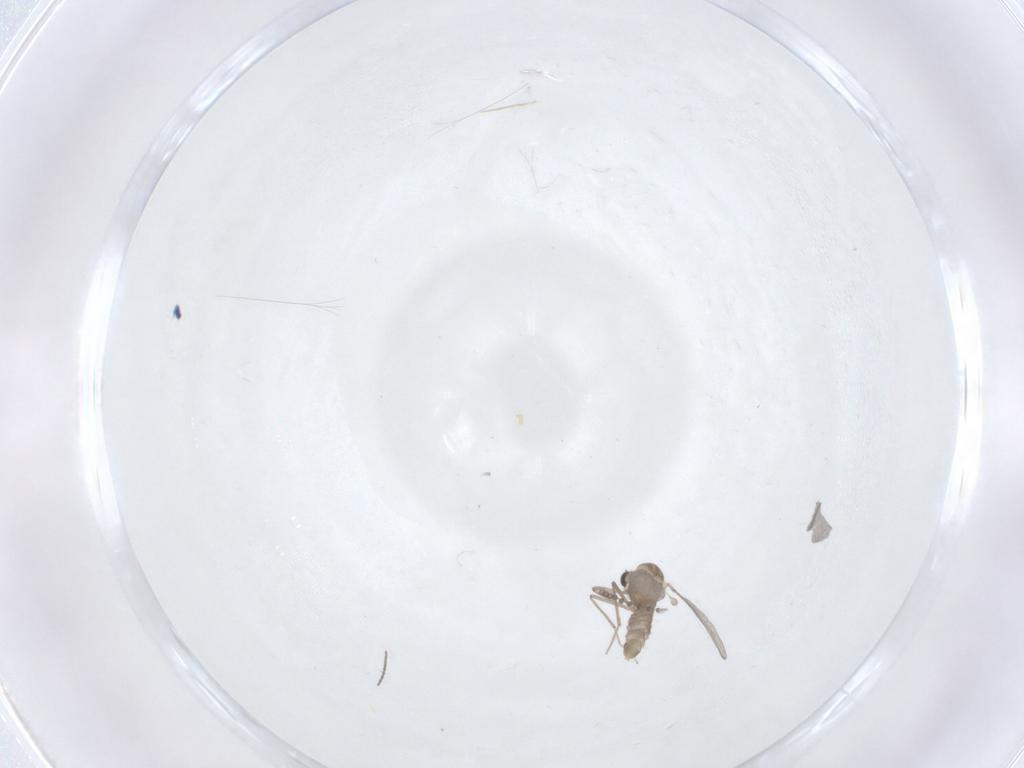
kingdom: Animalia
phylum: Arthropoda
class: Insecta
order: Diptera
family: Chironomidae
